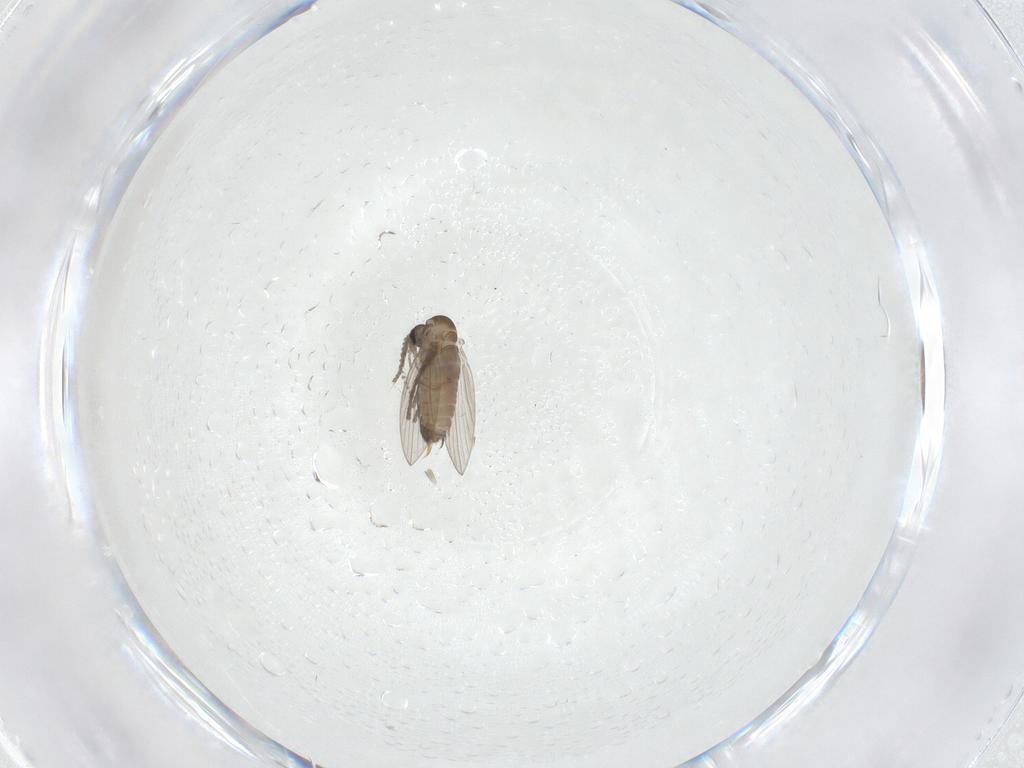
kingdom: Animalia
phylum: Arthropoda
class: Insecta
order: Diptera
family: Psychodidae
